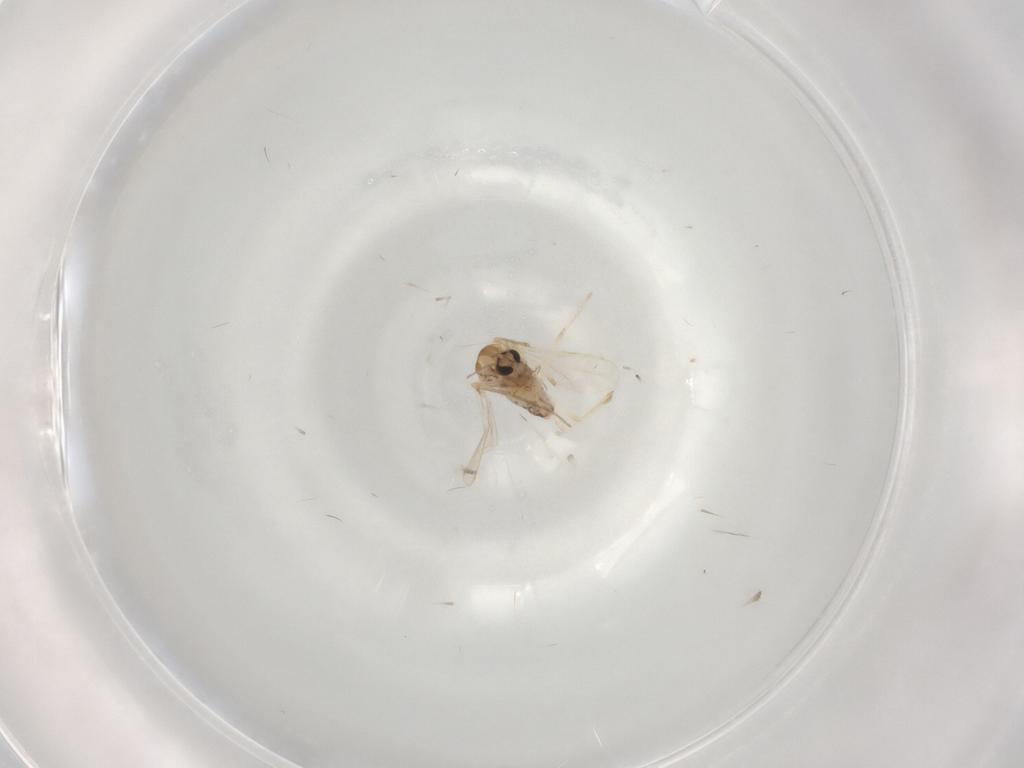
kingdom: Animalia
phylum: Arthropoda
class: Insecta
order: Diptera
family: Chironomidae
